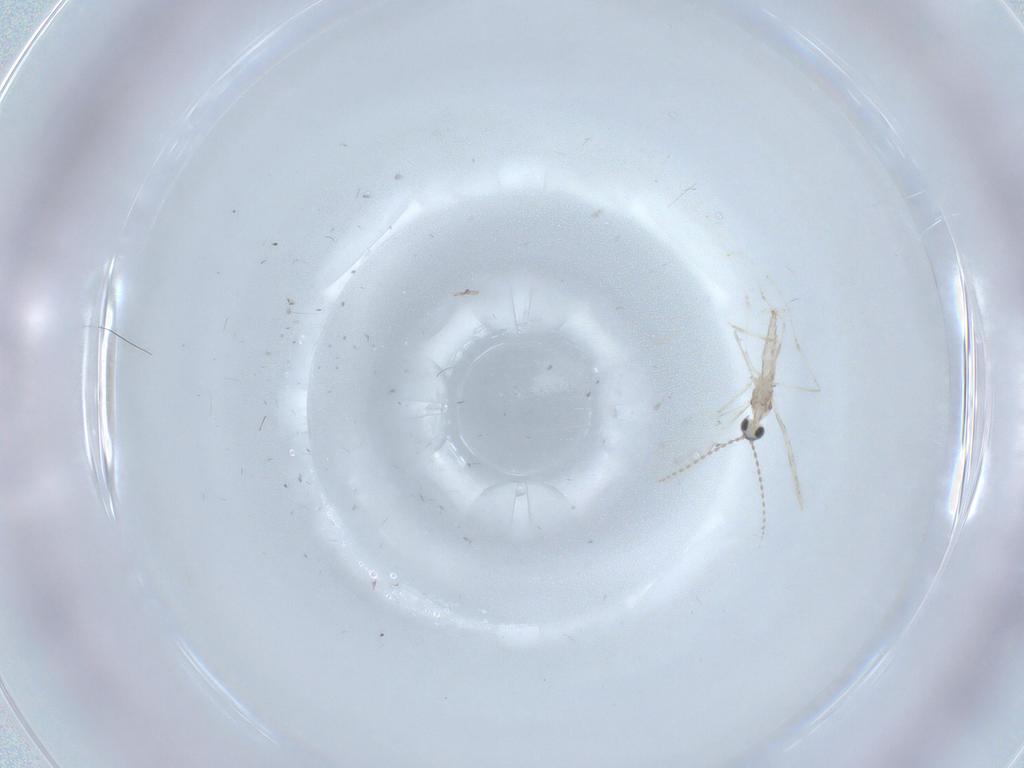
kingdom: Animalia
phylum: Arthropoda
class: Insecta
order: Diptera
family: Cecidomyiidae
